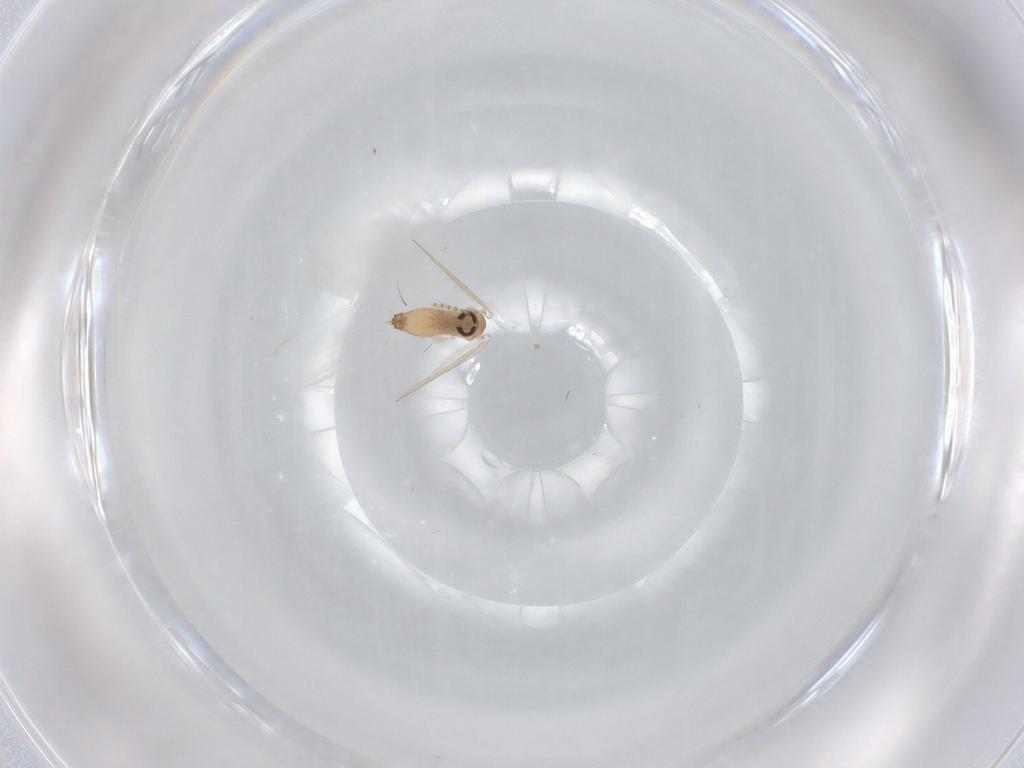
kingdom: Animalia
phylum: Arthropoda
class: Insecta
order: Diptera
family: Psychodidae
